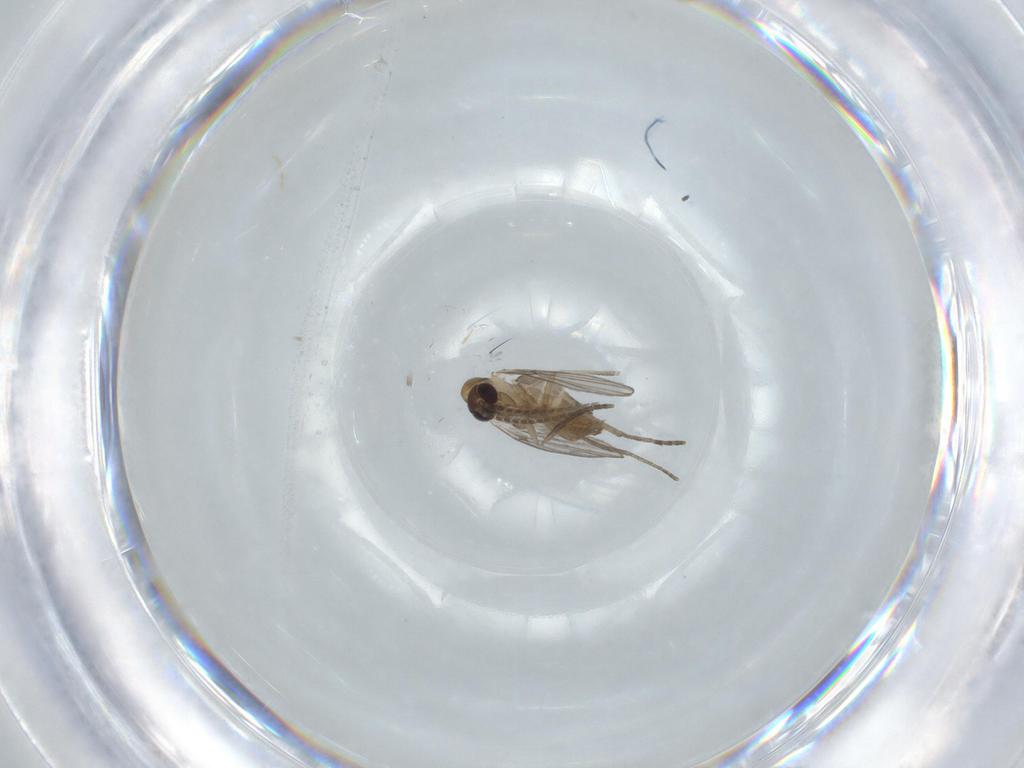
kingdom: Animalia
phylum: Arthropoda
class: Insecta
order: Diptera
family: Psychodidae
